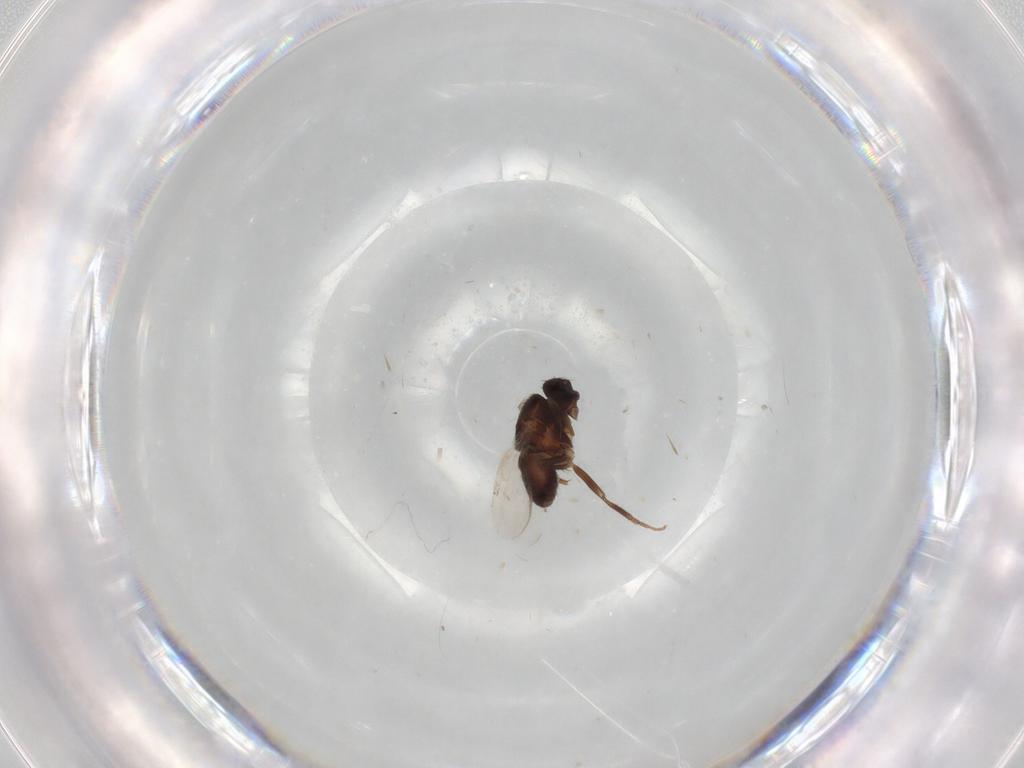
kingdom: Animalia
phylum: Arthropoda
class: Insecta
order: Diptera
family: Sphaeroceridae
